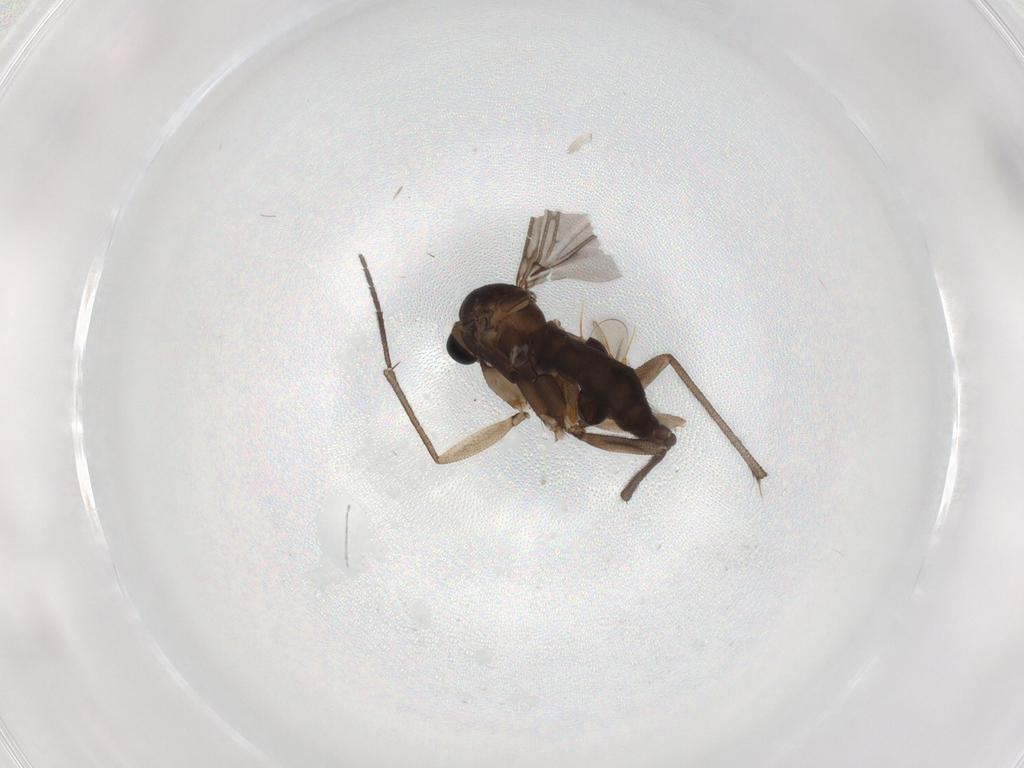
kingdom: Animalia
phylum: Arthropoda
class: Insecta
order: Diptera
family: Sciaridae
